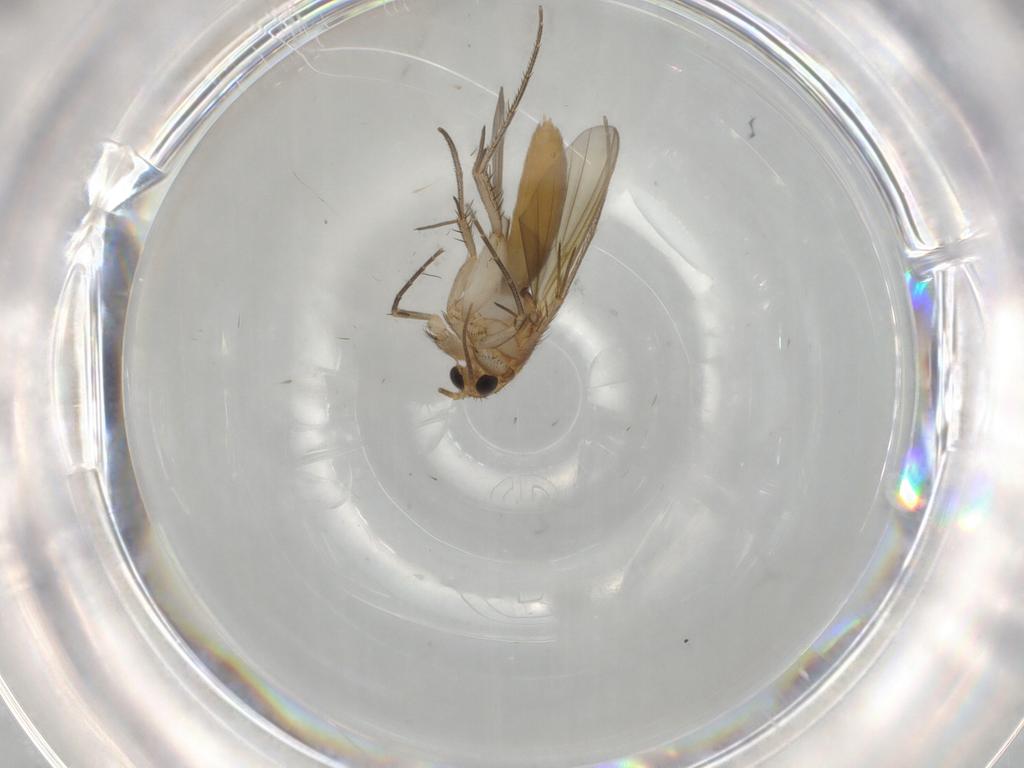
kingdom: Animalia
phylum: Arthropoda
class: Insecta
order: Diptera
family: Mycetophilidae
